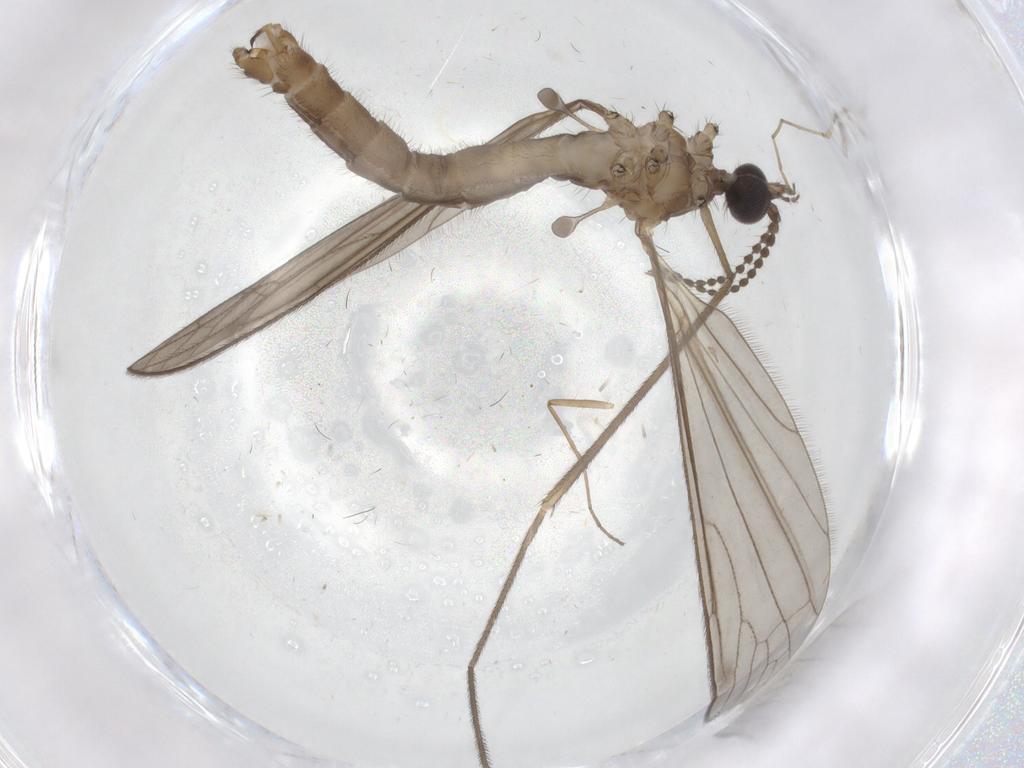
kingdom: Animalia
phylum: Arthropoda
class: Insecta
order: Diptera
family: Limoniidae
